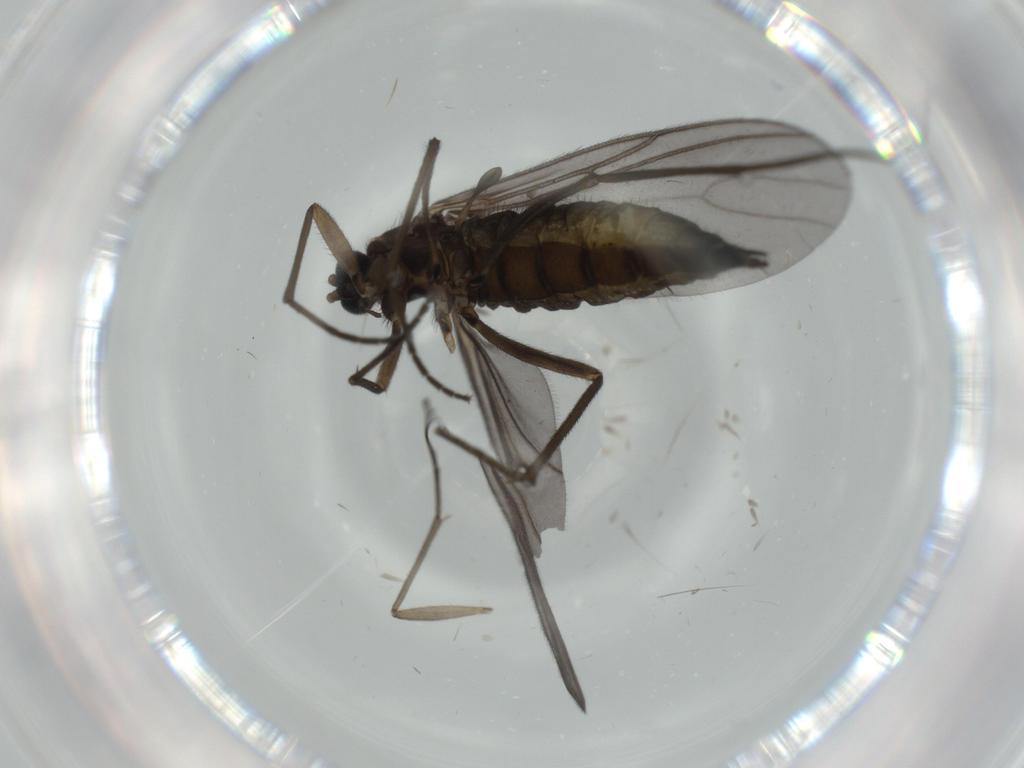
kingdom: Animalia
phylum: Arthropoda
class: Insecta
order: Diptera
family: Sciaridae
